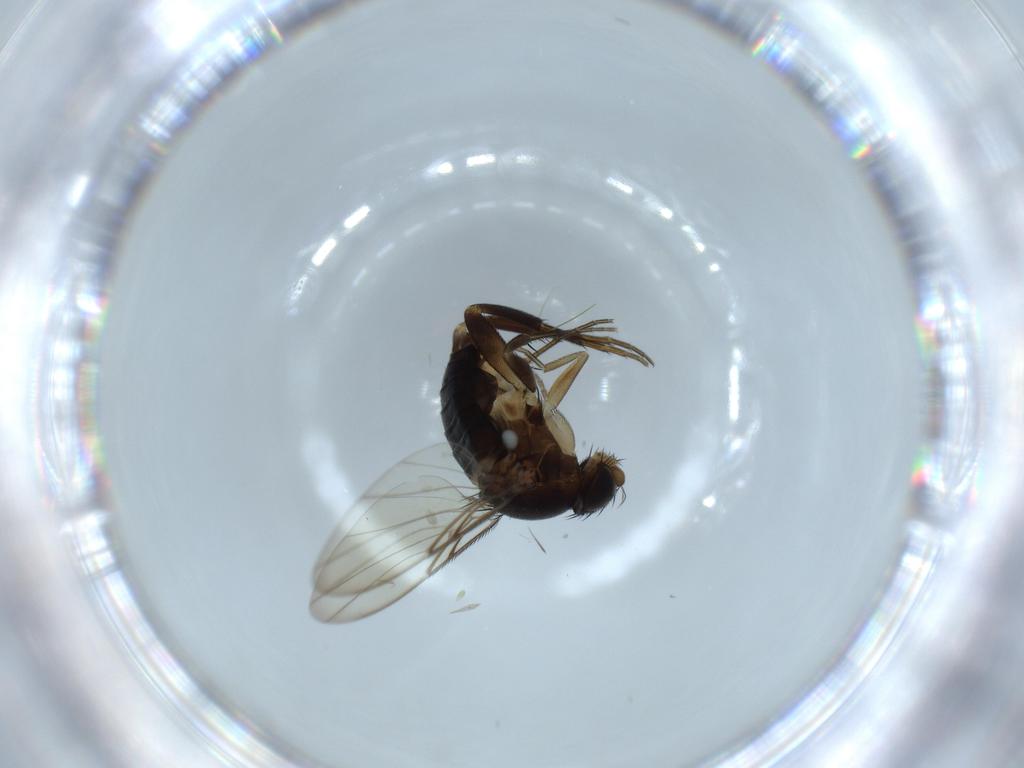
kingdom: Animalia
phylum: Arthropoda
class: Insecta
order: Diptera
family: Phoridae
